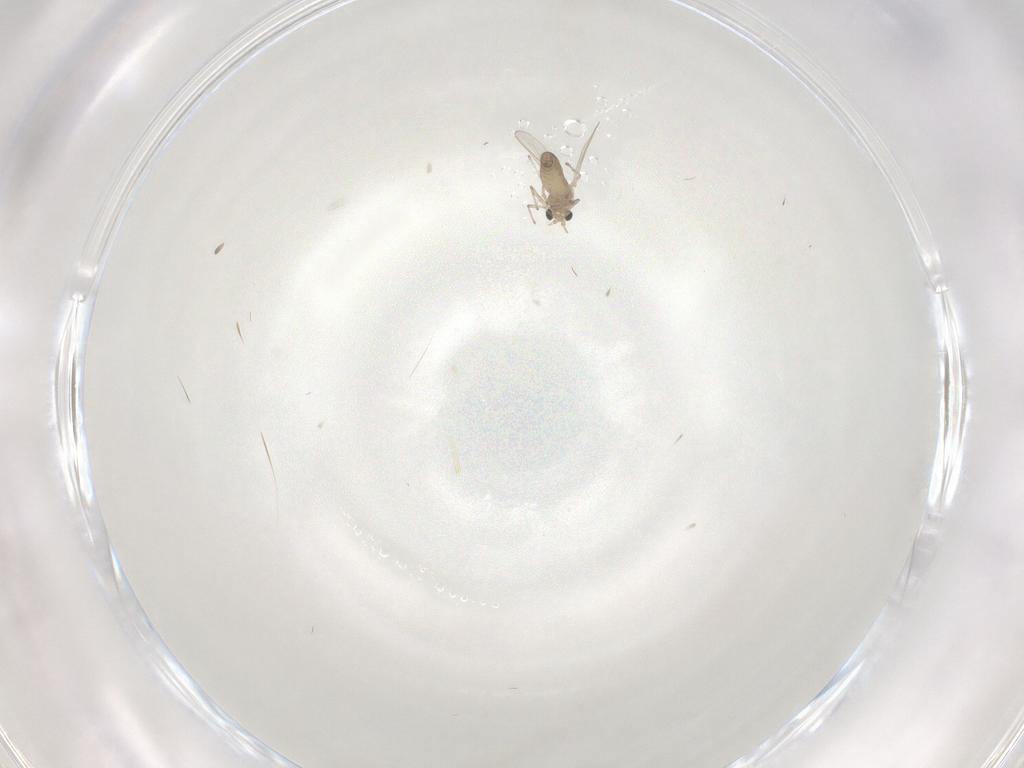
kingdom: Animalia
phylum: Arthropoda
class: Insecta
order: Diptera
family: Chironomidae
